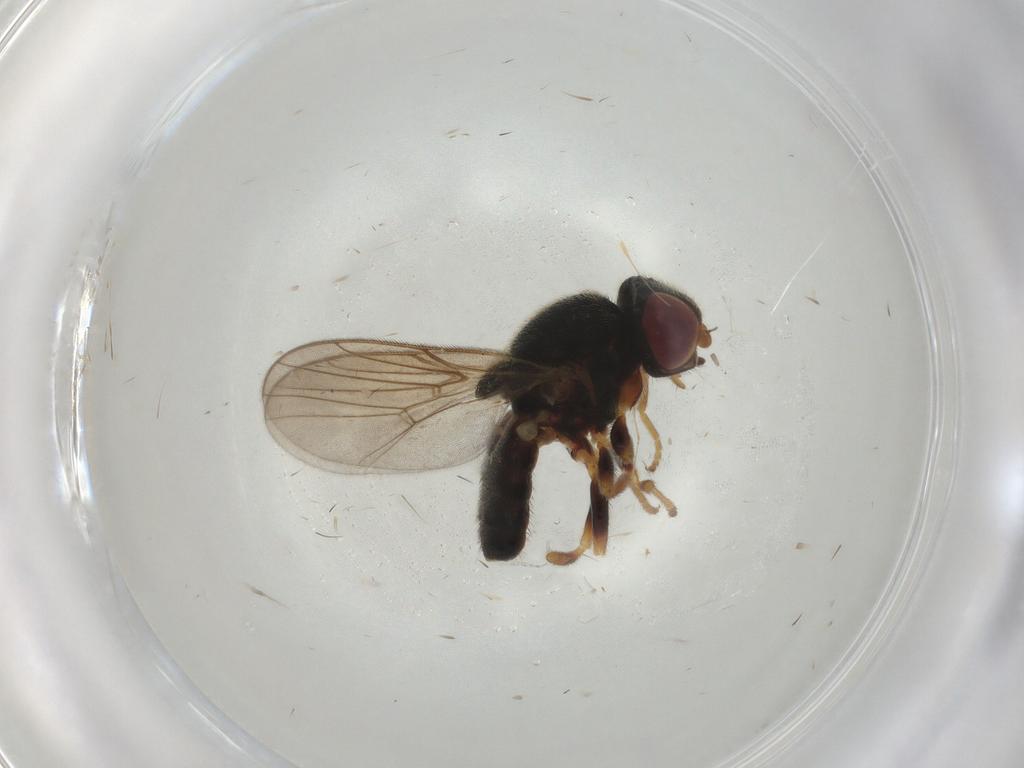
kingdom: Animalia
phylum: Arthropoda
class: Insecta
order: Diptera
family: Chloropidae
